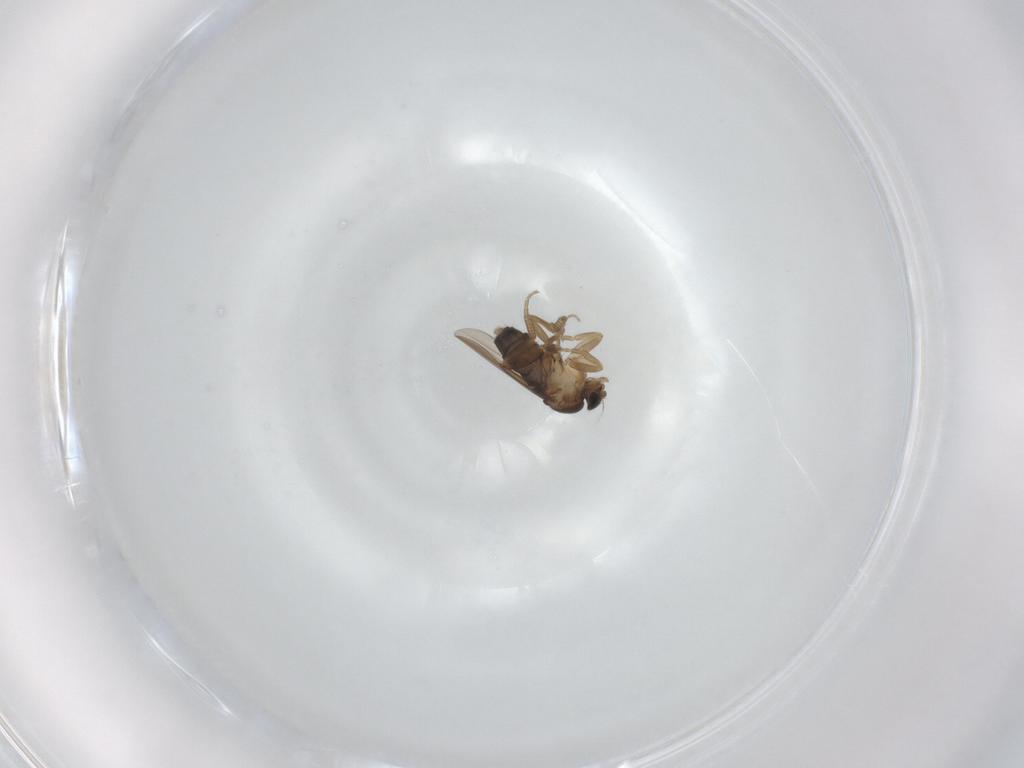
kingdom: Animalia
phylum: Arthropoda
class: Insecta
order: Diptera
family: Phoridae
